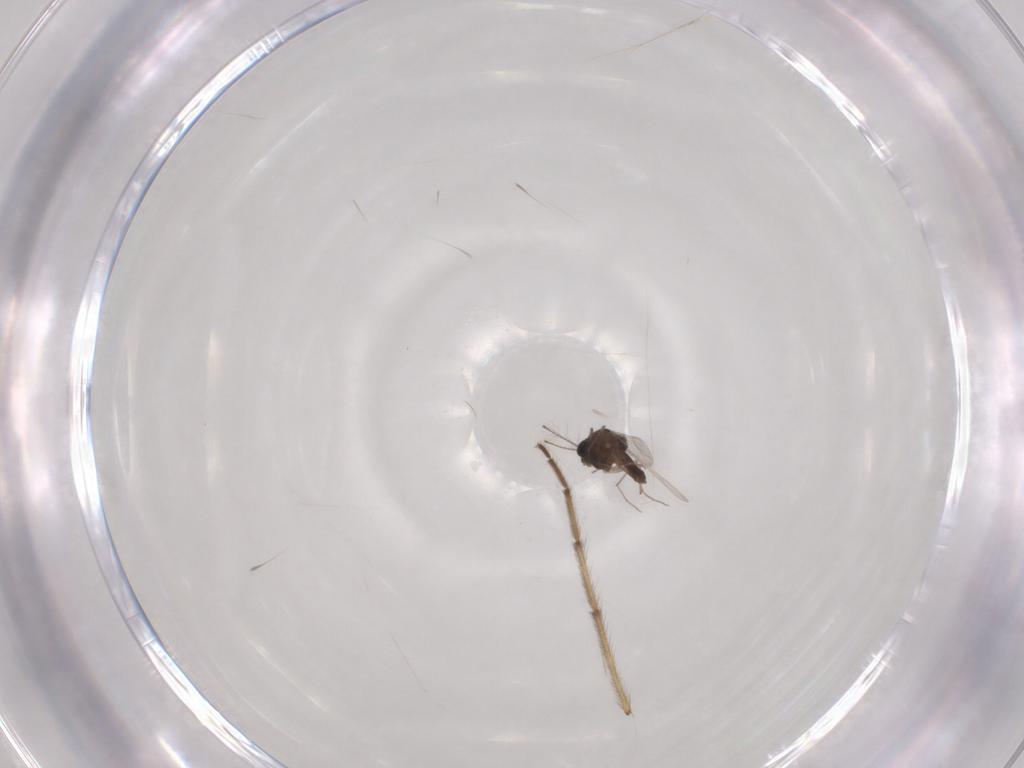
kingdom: Animalia
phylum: Arthropoda
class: Insecta
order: Diptera
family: Chironomidae
